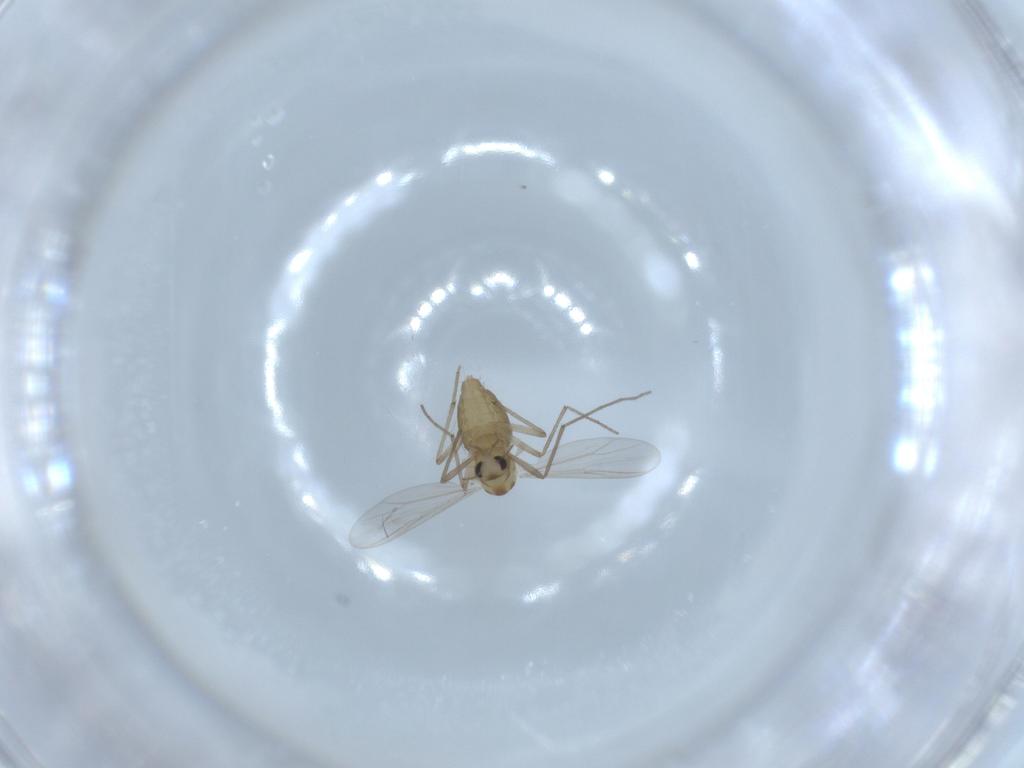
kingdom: Animalia
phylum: Arthropoda
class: Insecta
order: Diptera
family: Chironomidae
